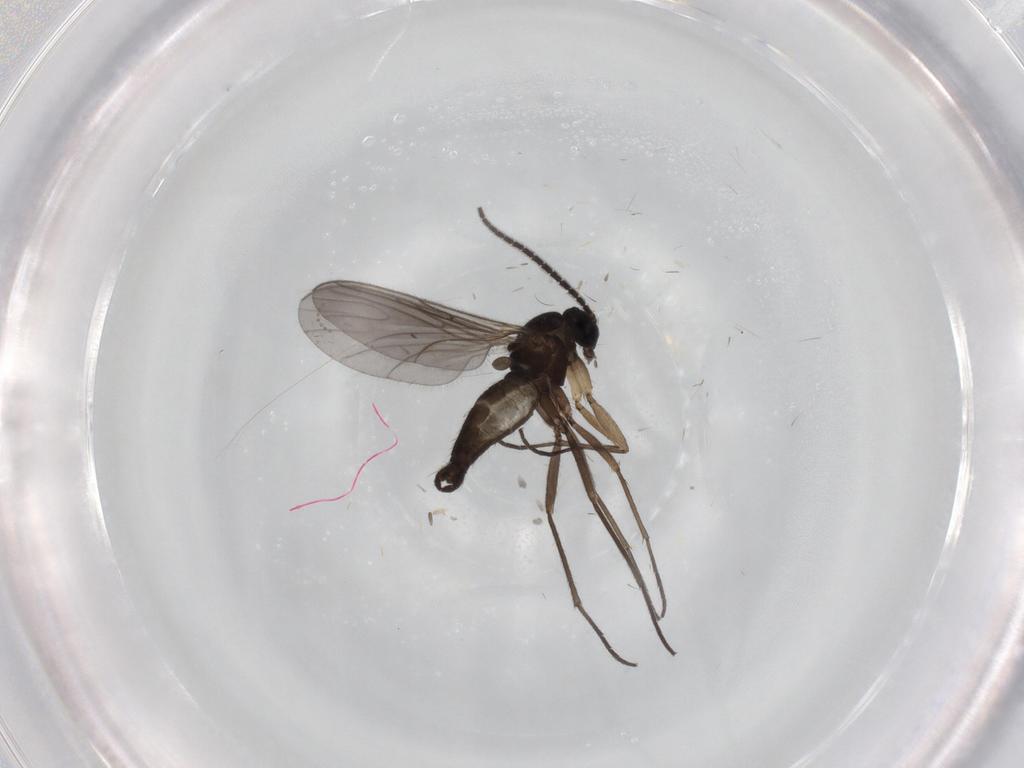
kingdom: Animalia
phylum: Arthropoda
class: Insecta
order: Diptera
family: Sciaridae
